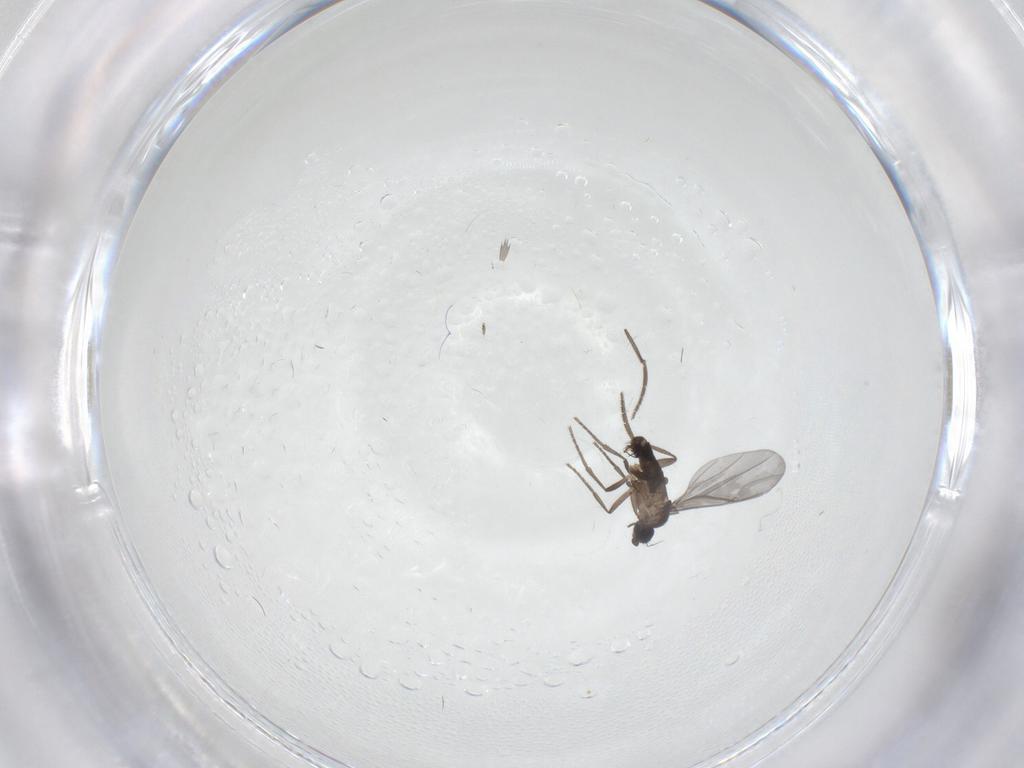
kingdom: Animalia
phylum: Arthropoda
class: Insecta
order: Diptera
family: Phoridae
